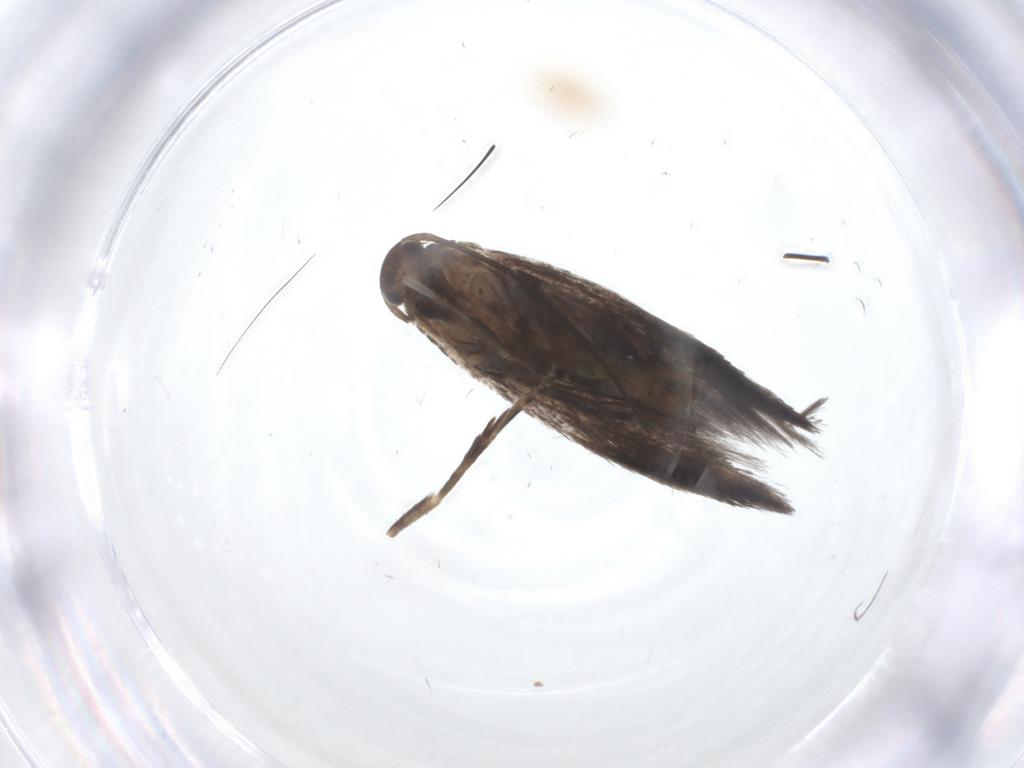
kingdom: Animalia
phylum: Arthropoda
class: Insecta
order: Lepidoptera
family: Elachistidae
